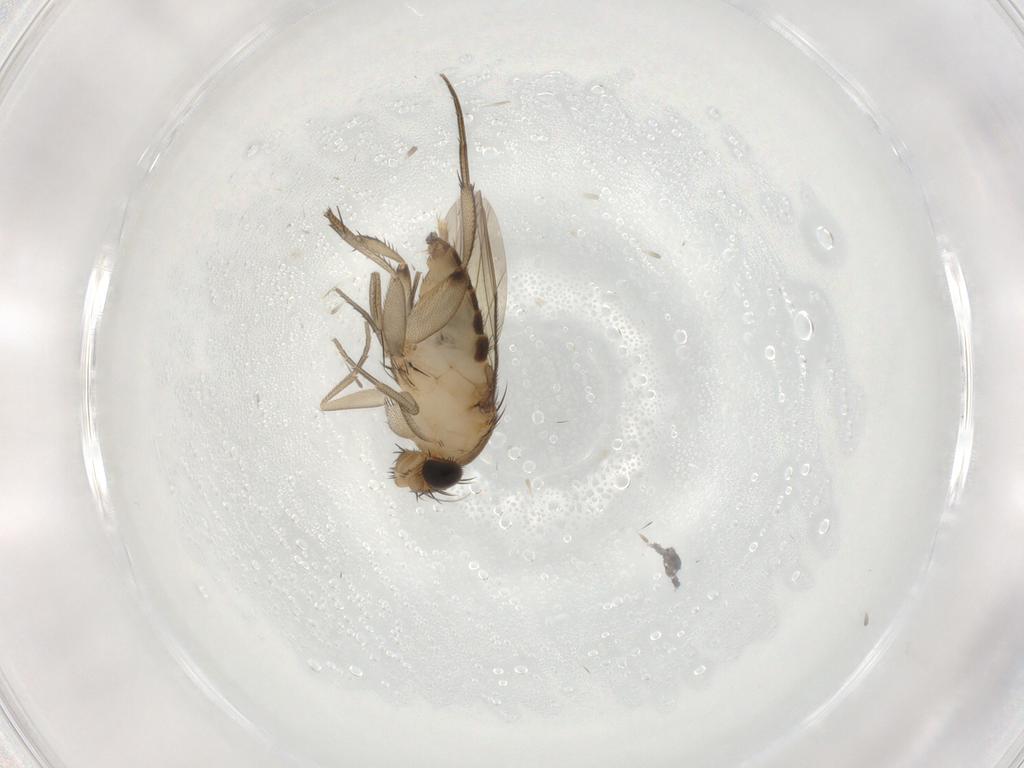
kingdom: Animalia
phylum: Arthropoda
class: Insecta
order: Diptera
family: Phoridae
